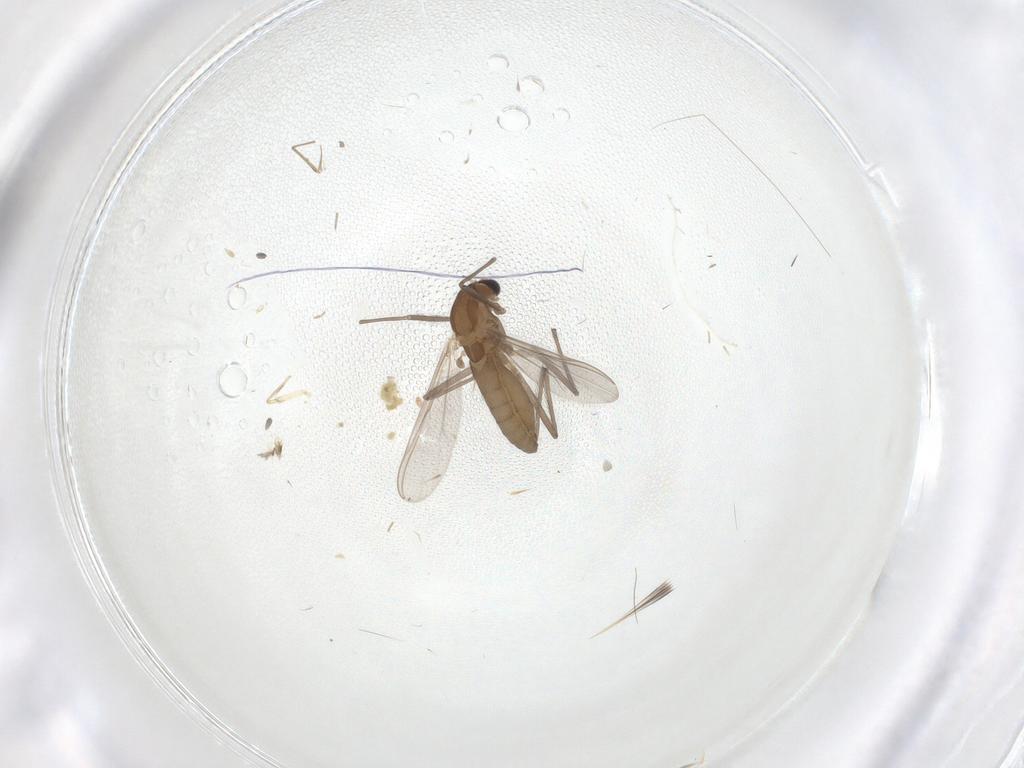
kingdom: Animalia
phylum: Arthropoda
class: Insecta
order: Diptera
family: Chironomidae
